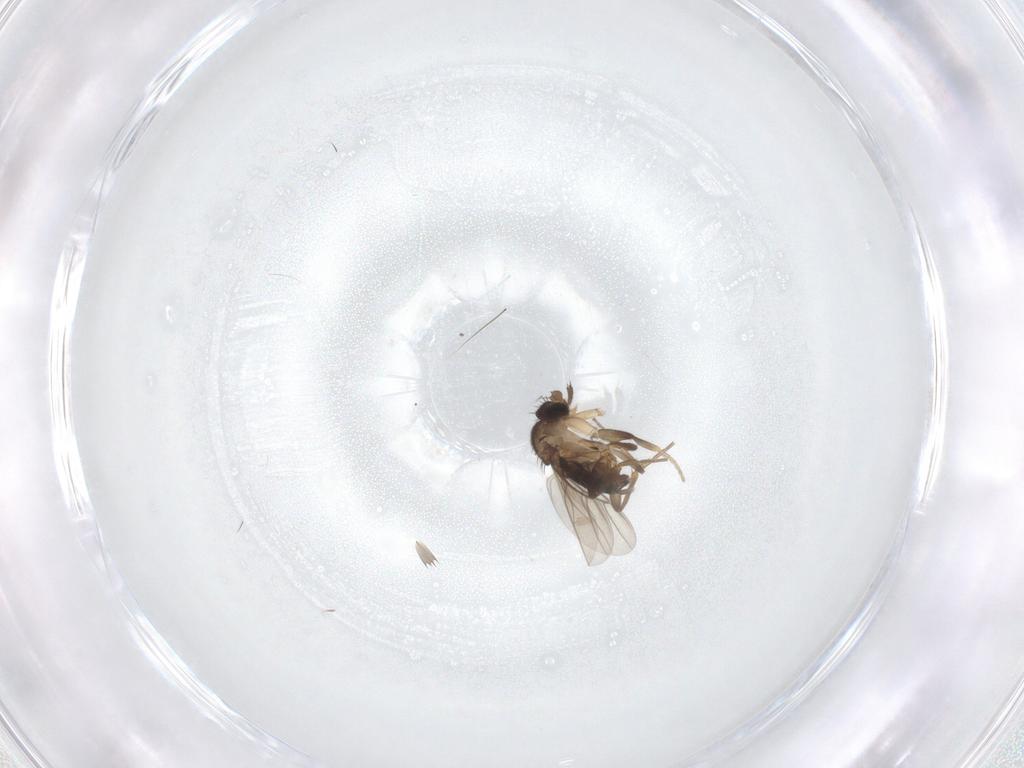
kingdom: Animalia
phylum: Arthropoda
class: Insecta
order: Diptera
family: Phoridae
